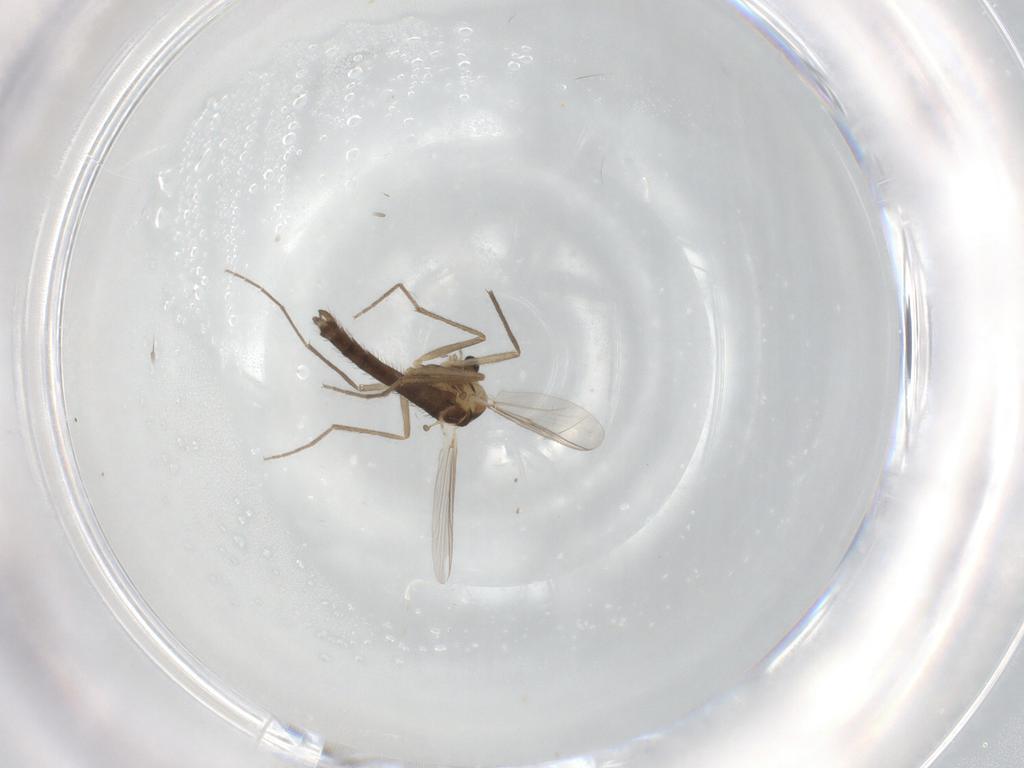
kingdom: Animalia
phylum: Arthropoda
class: Insecta
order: Diptera
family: Chironomidae
